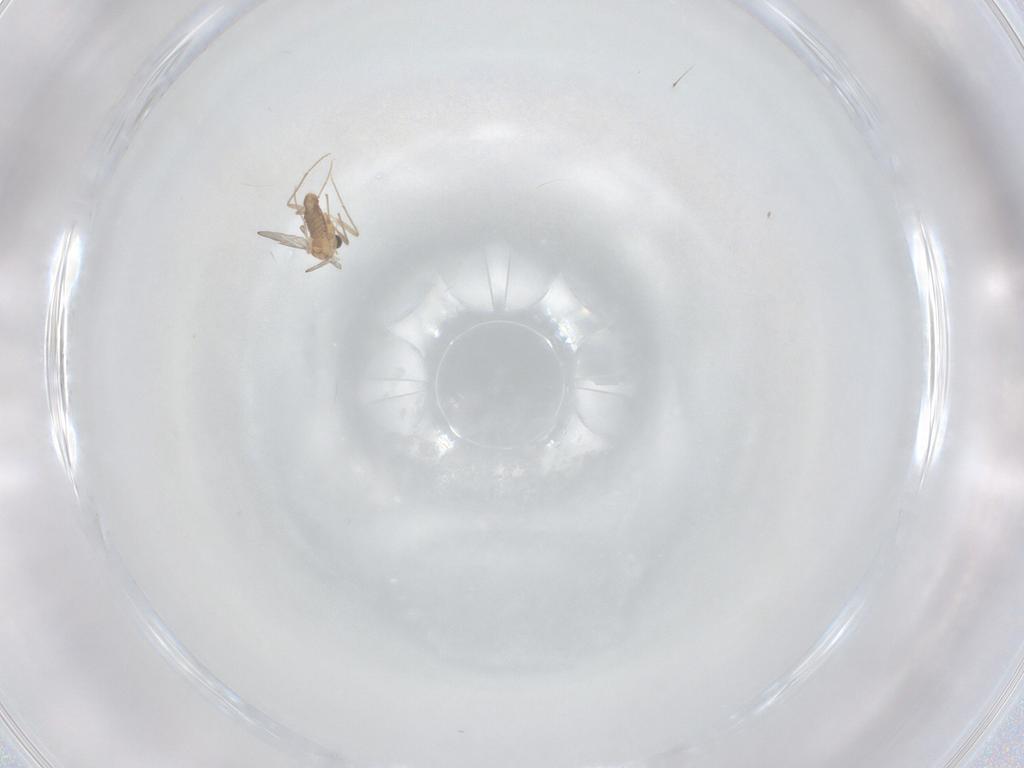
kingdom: Animalia
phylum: Arthropoda
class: Insecta
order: Diptera
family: Chironomidae
